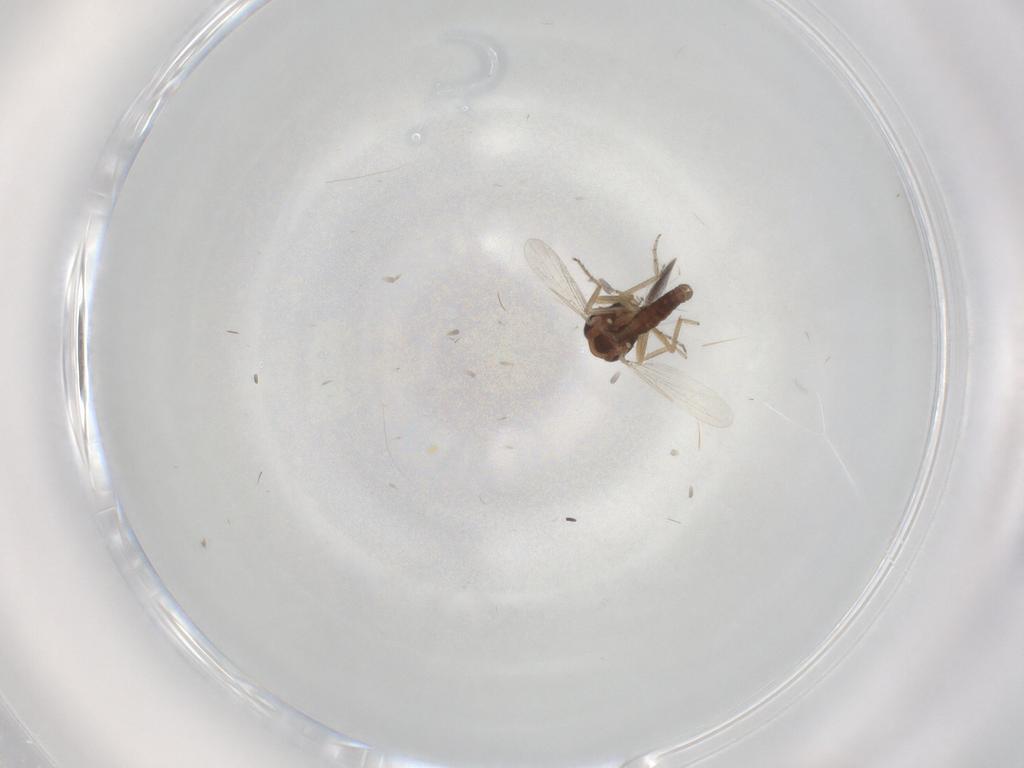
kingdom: Animalia
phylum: Arthropoda
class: Insecta
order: Diptera
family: Ceratopogonidae
